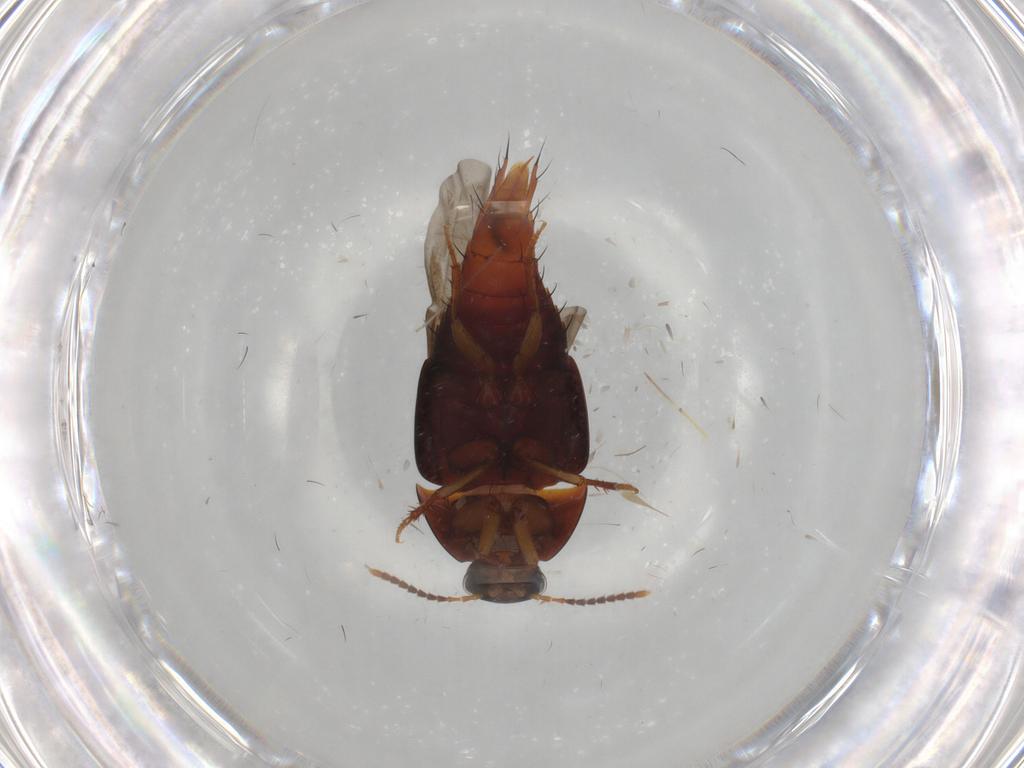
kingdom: Animalia
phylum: Arthropoda
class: Insecta
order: Coleoptera
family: Staphylinidae
